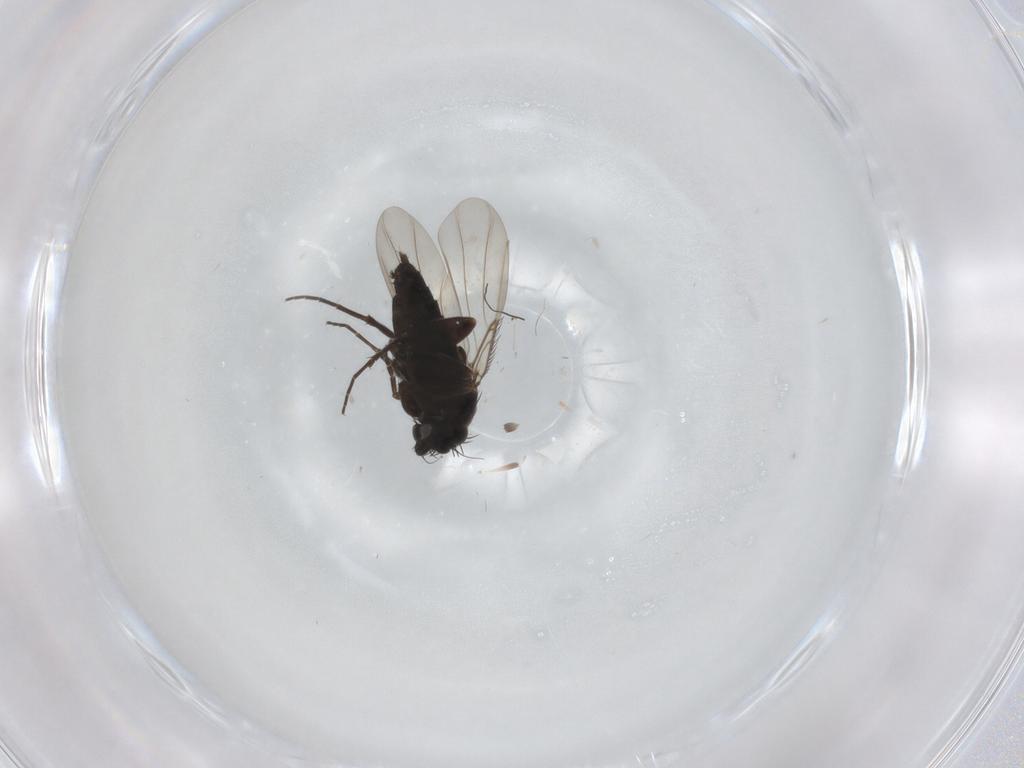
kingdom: Animalia
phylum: Arthropoda
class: Insecta
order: Diptera
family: Phoridae
